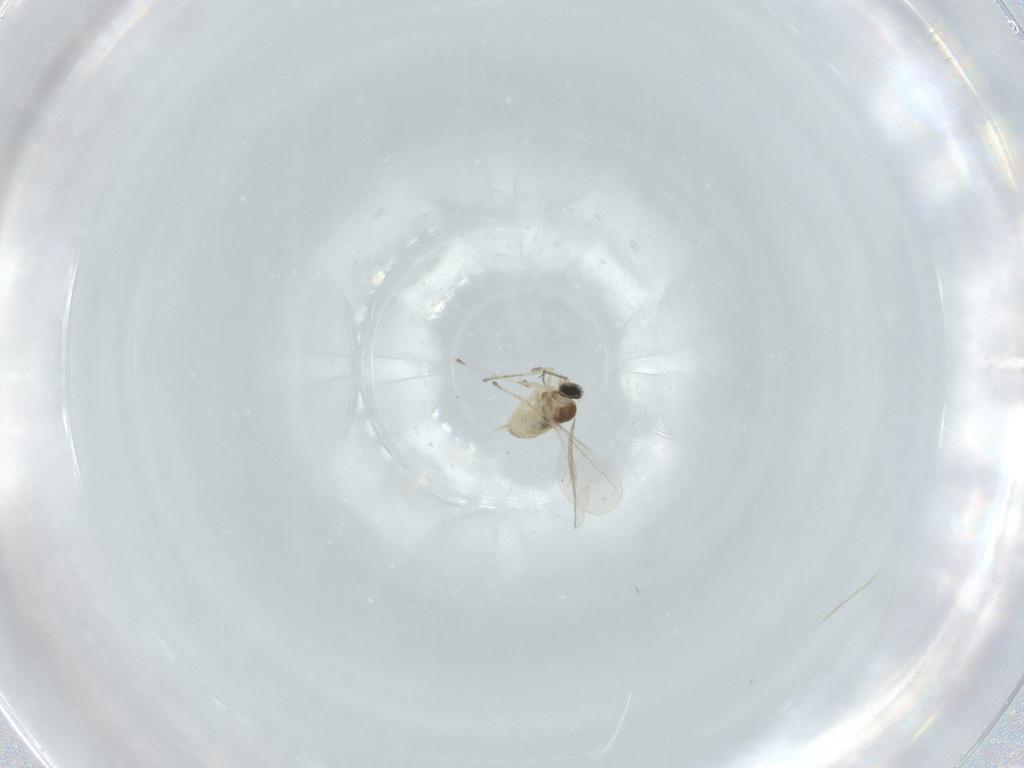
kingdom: Animalia
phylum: Arthropoda
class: Insecta
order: Diptera
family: Cecidomyiidae
